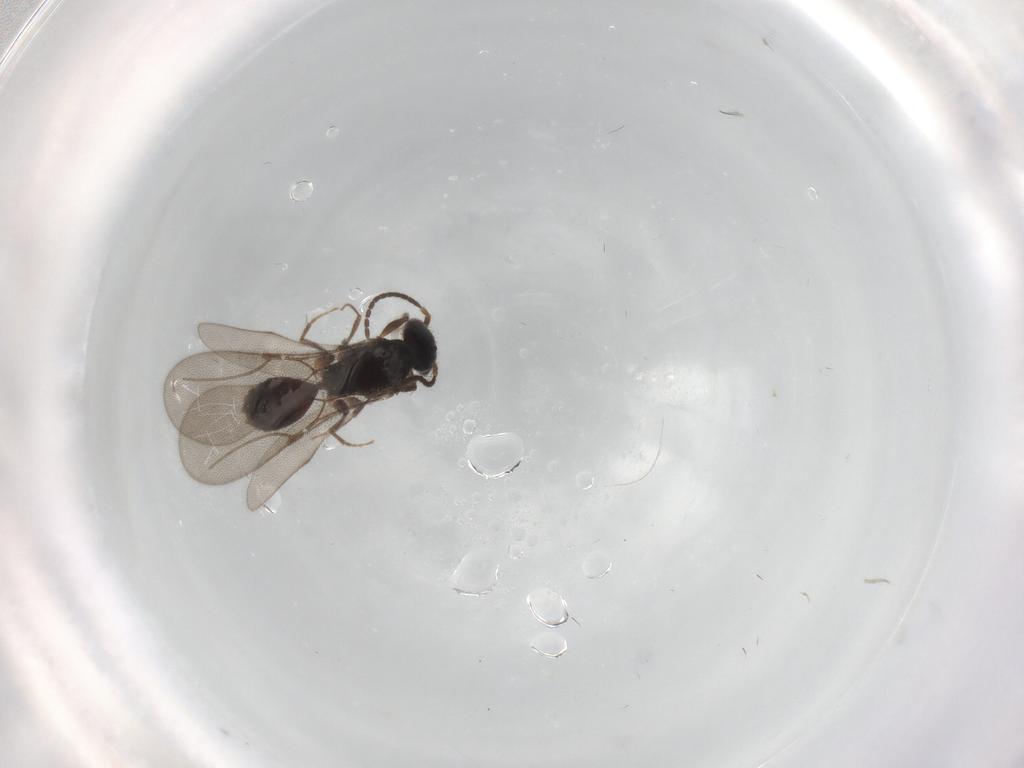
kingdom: Animalia
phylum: Arthropoda
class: Insecta
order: Hymenoptera
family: Bethylidae
